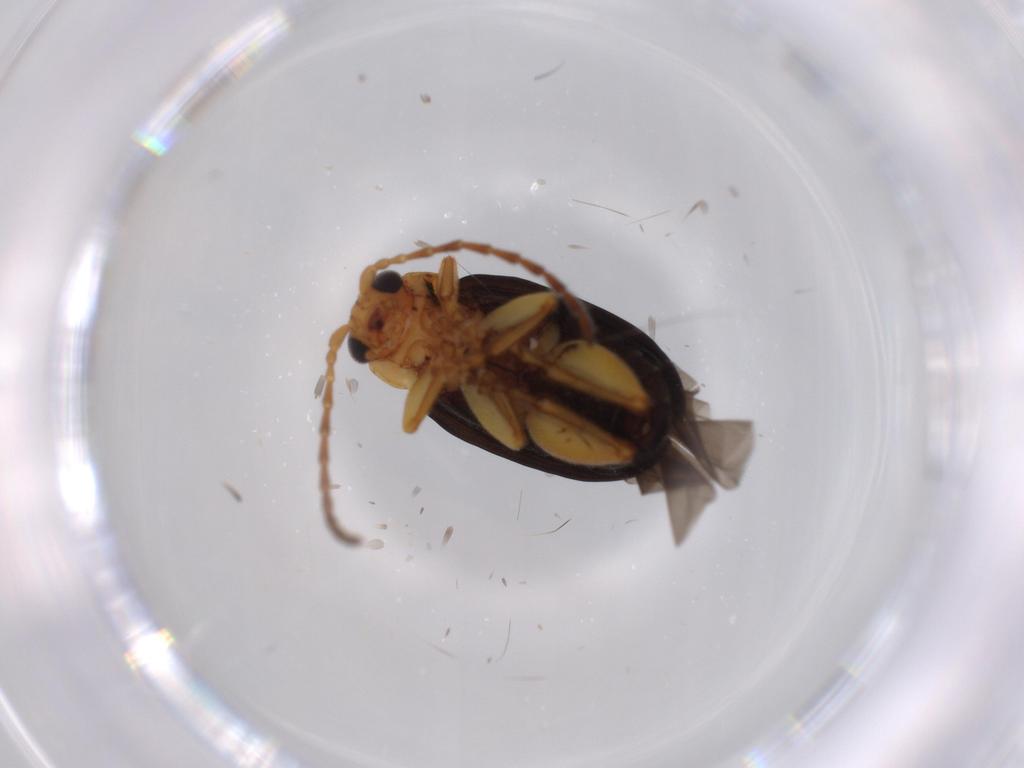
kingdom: Animalia
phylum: Arthropoda
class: Insecta
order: Coleoptera
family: Chrysomelidae
